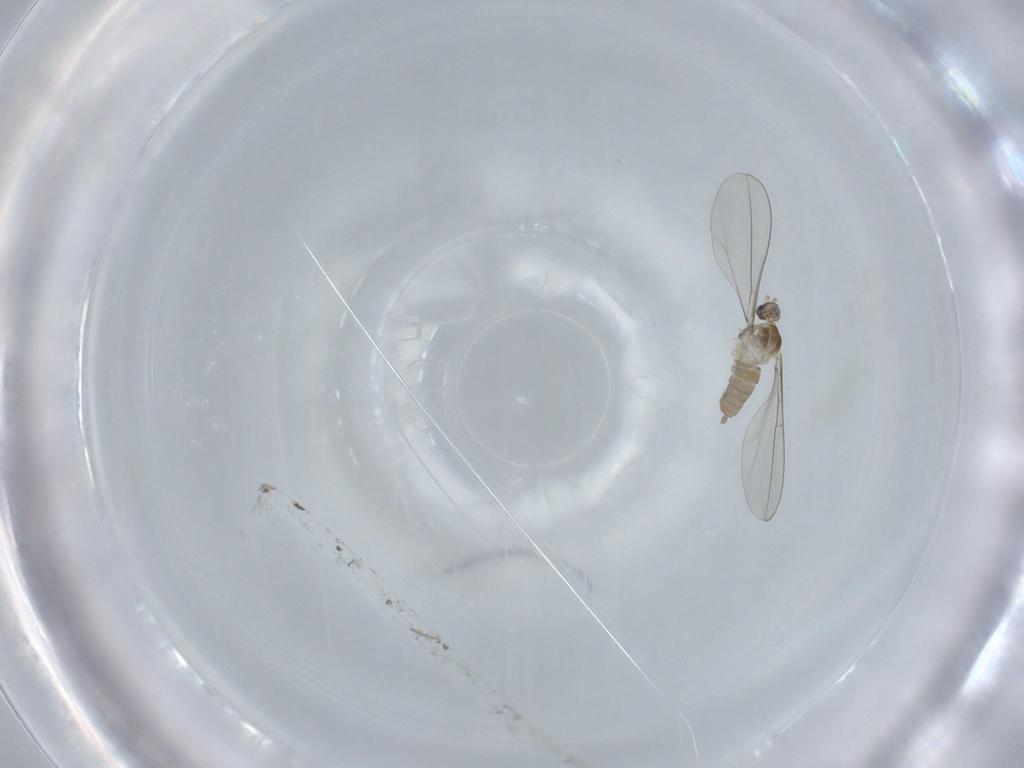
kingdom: Animalia
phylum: Arthropoda
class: Insecta
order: Diptera
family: Cecidomyiidae
